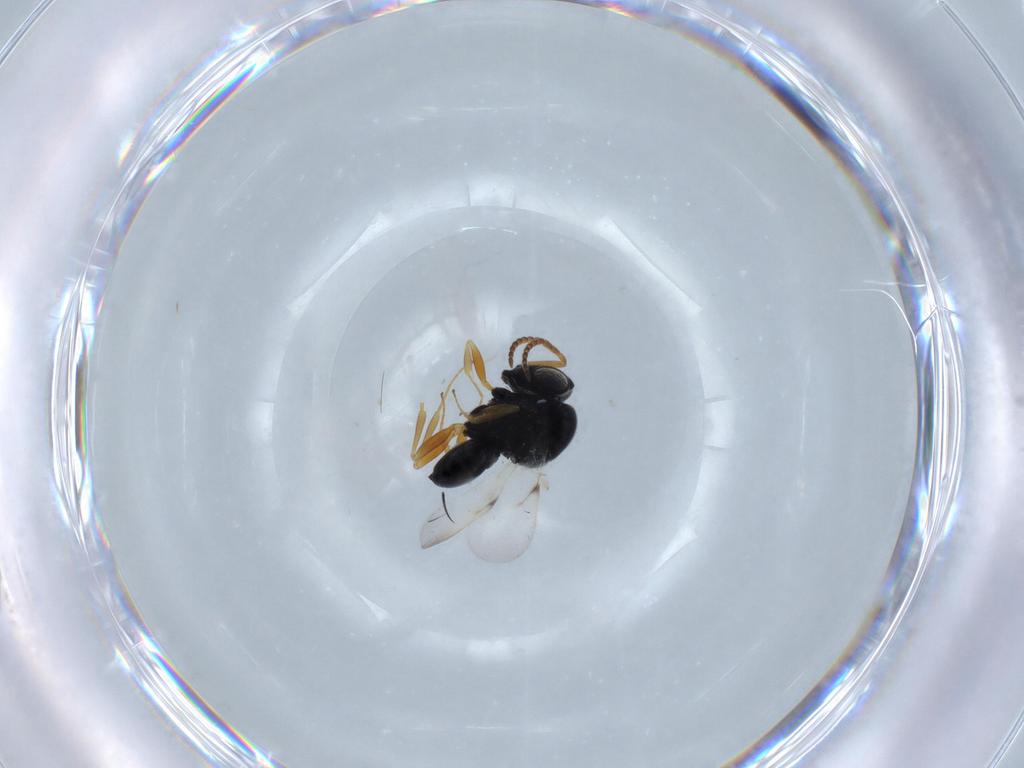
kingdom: Animalia
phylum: Arthropoda
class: Insecta
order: Hymenoptera
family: Scelionidae
